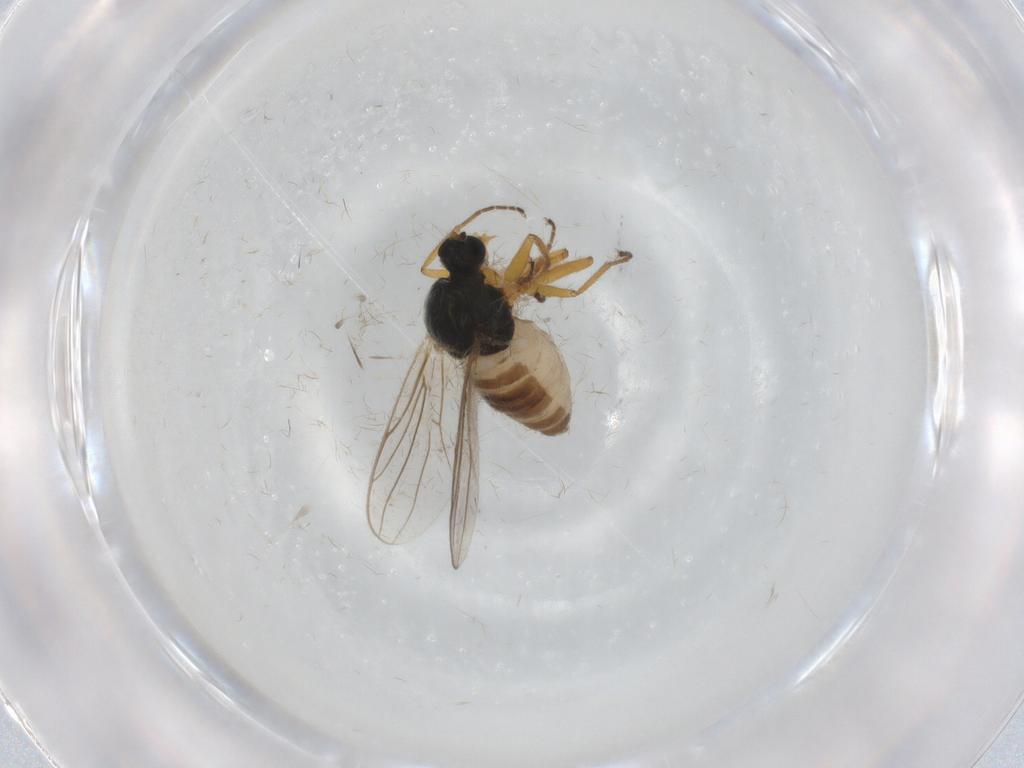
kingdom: Animalia
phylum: Arthropoda
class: Insecta
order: Diptera
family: Hybotidae
